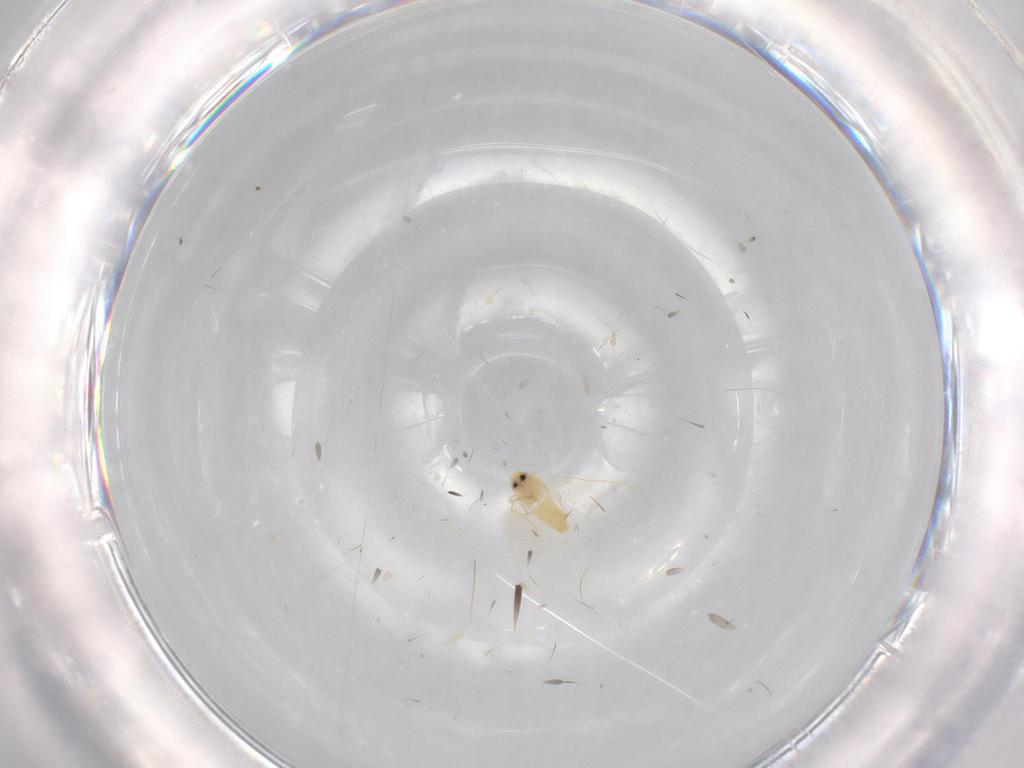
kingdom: Animalia
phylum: Arthropoda
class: Insecta
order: Hemiptera
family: Aleyrodidae
